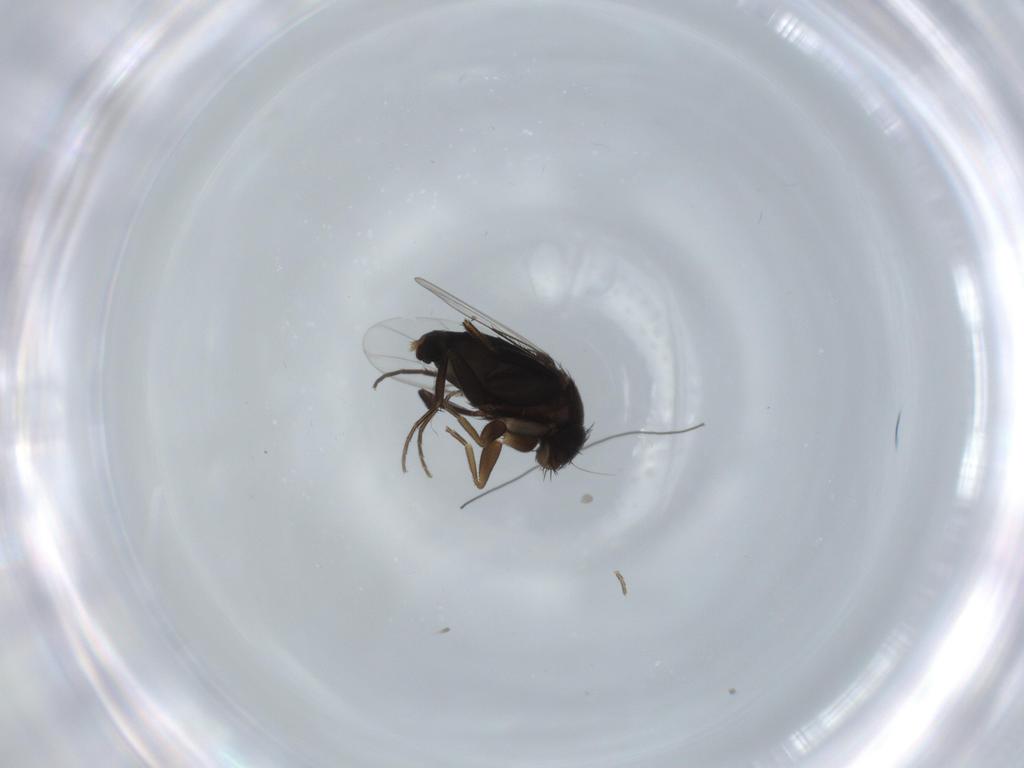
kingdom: Animalia
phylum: Arthropoda
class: Insecta
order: Diptera
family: Phoridae
